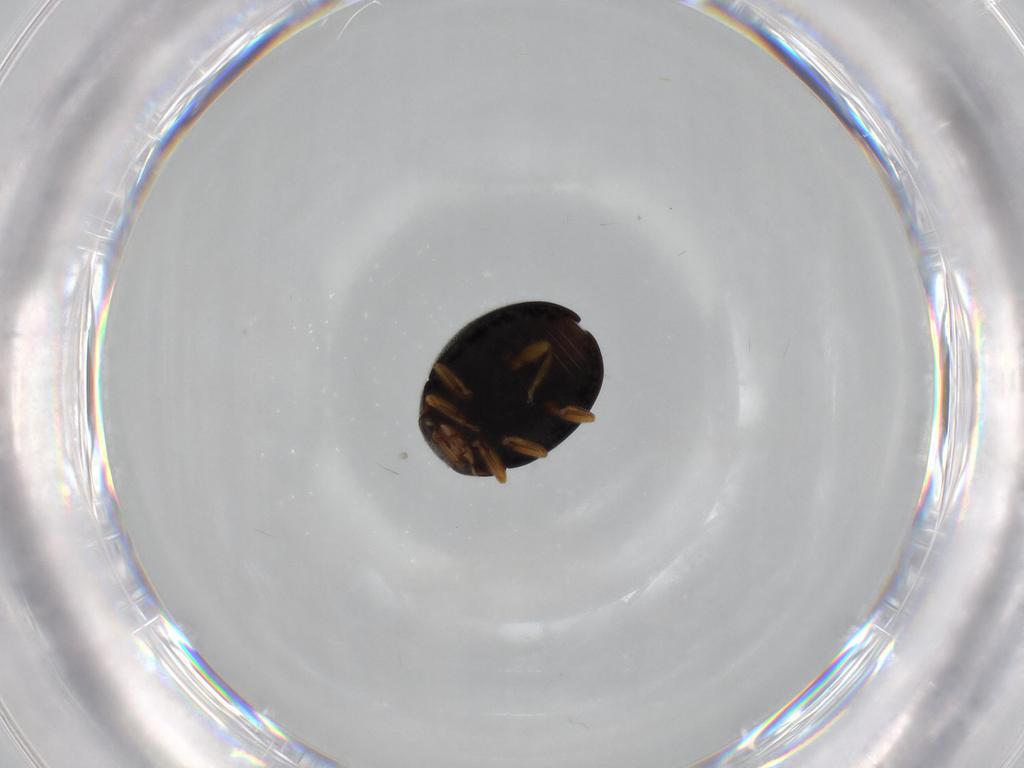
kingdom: Animalia
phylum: Arthropoda
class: Insecta
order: Coleoptera
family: Coccinellidae
